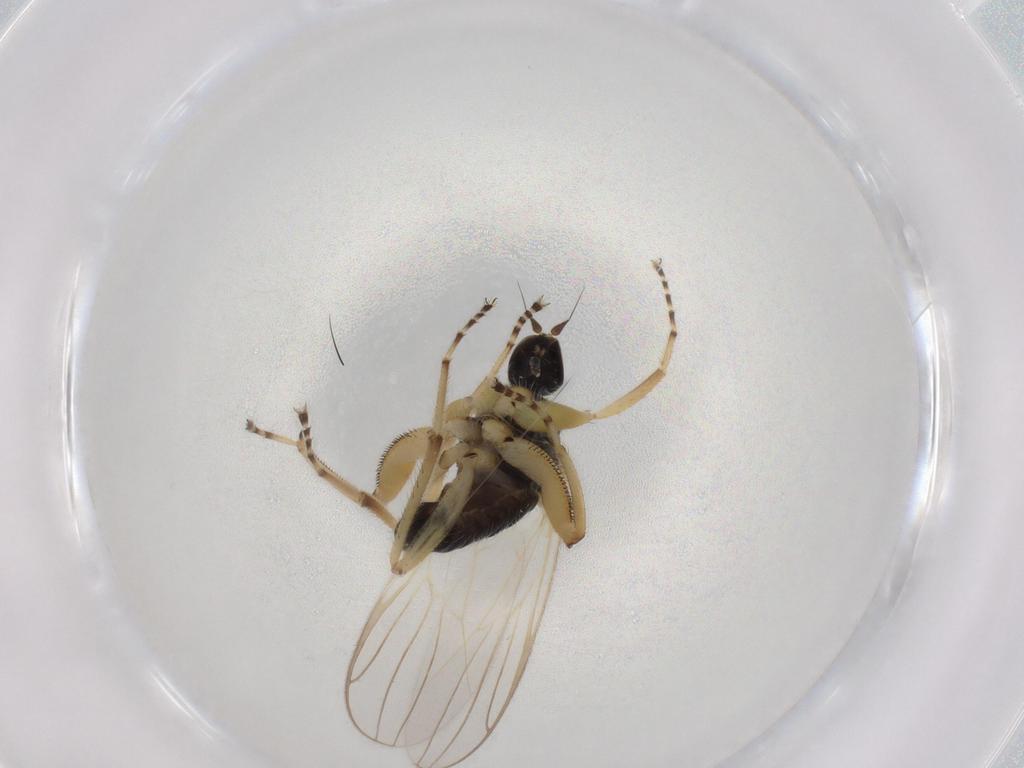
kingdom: Animalia
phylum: Arthropoda
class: Insecta
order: Diptera
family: Hybotidae
